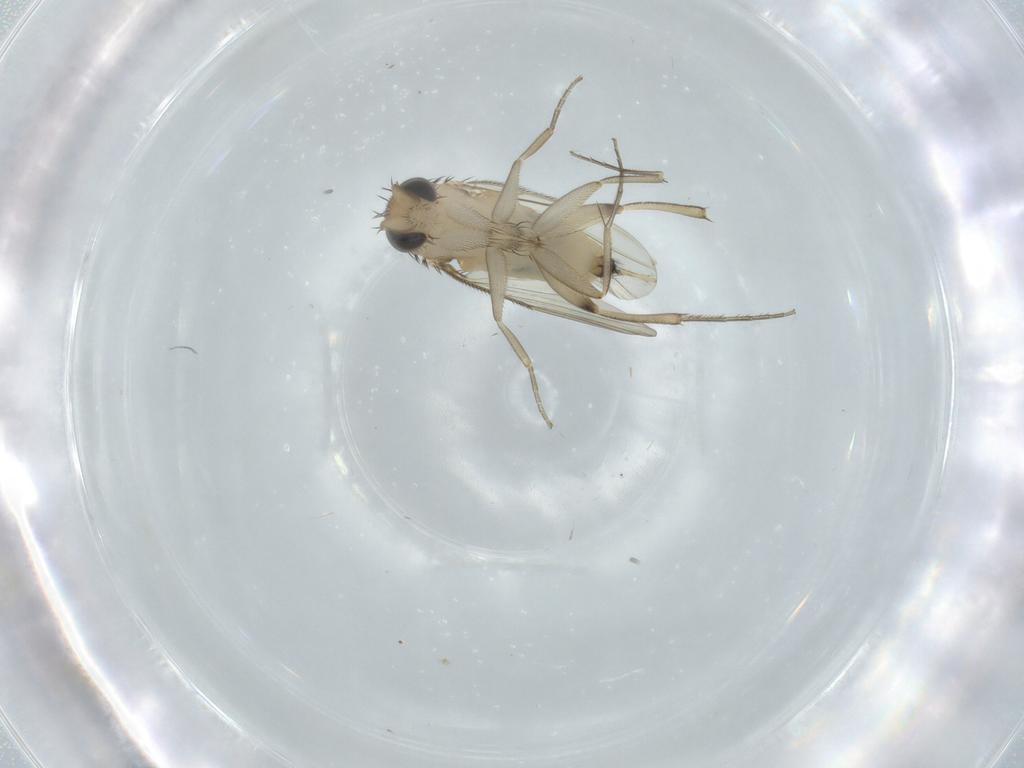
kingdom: Animalia
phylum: Arthropoda
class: Insecta
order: Diptera
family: Phoridae
